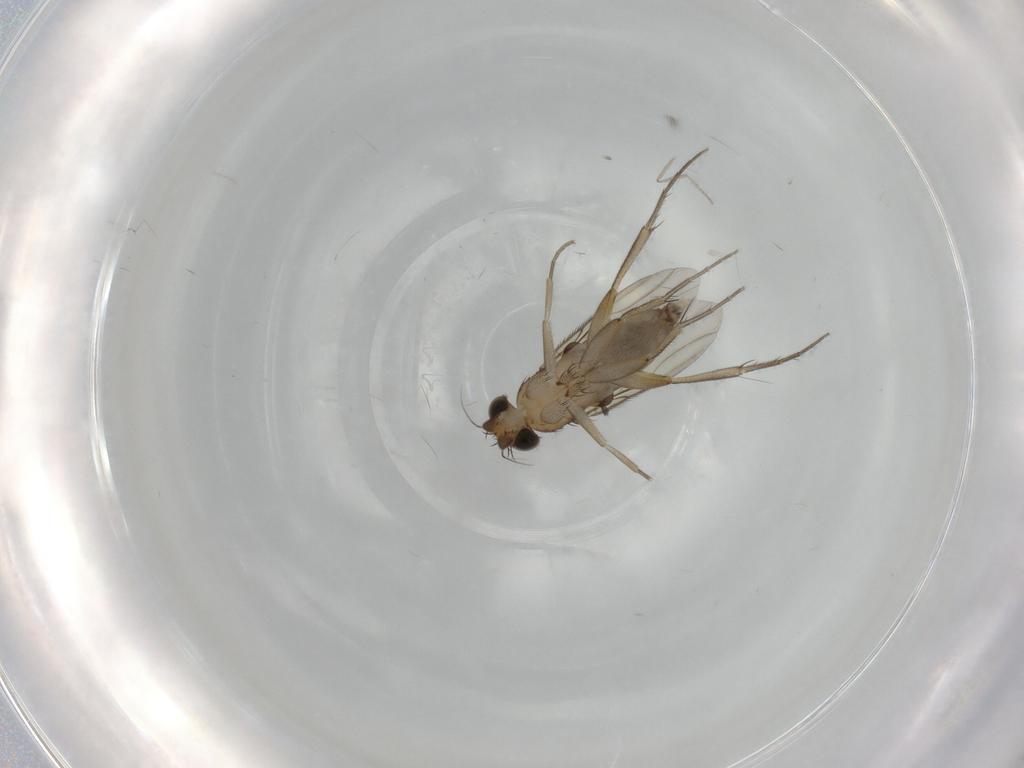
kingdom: Animalia
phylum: Arthropoda
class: Insecta
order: Diptera
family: Phoridae
